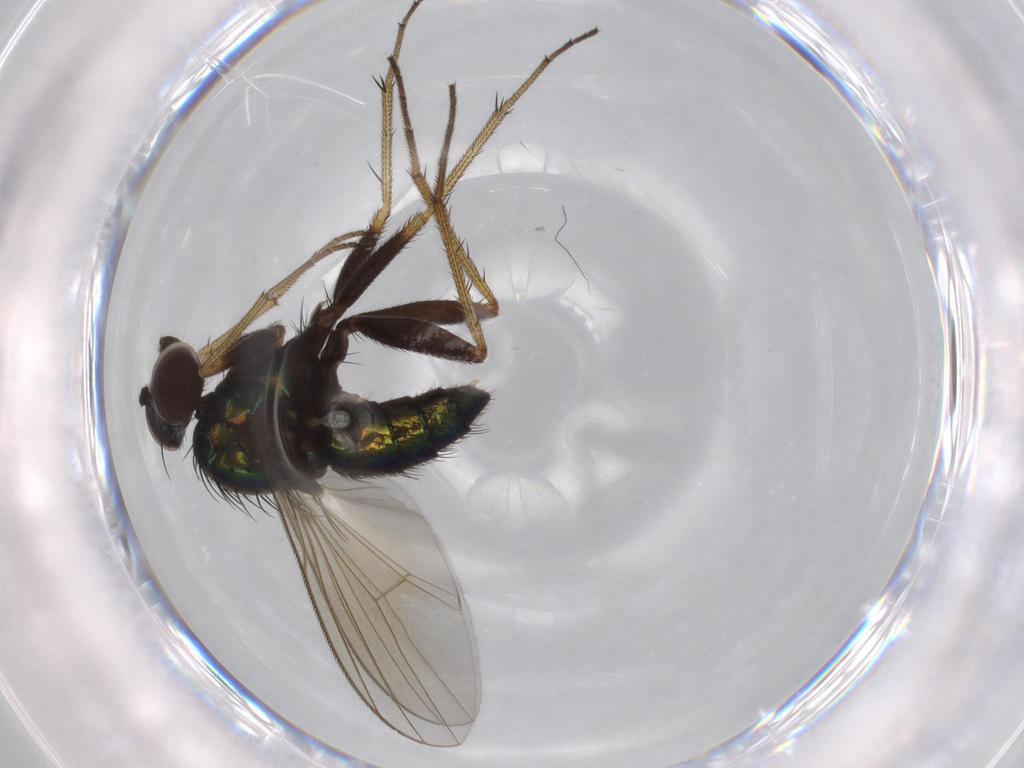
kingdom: Animalia
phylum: Arthropoda
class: Insecta
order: Diptera
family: Dolichopodidae
